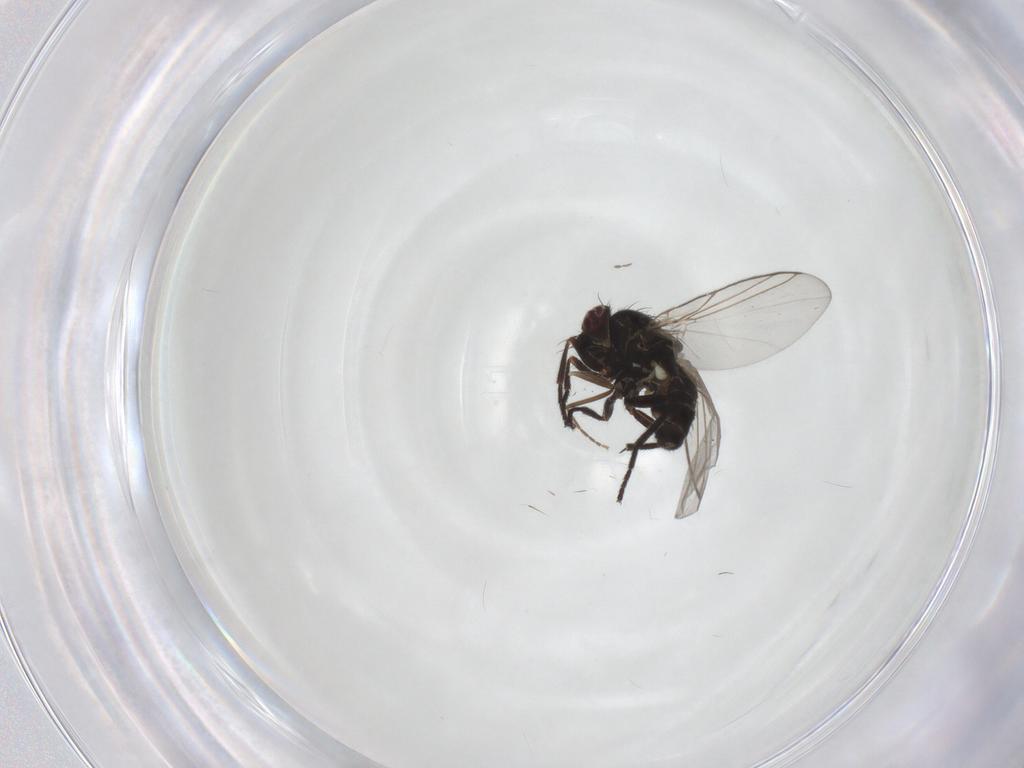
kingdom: Animalia
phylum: Arthropoda
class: Insecta
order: Diptera
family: Agromyzidae
